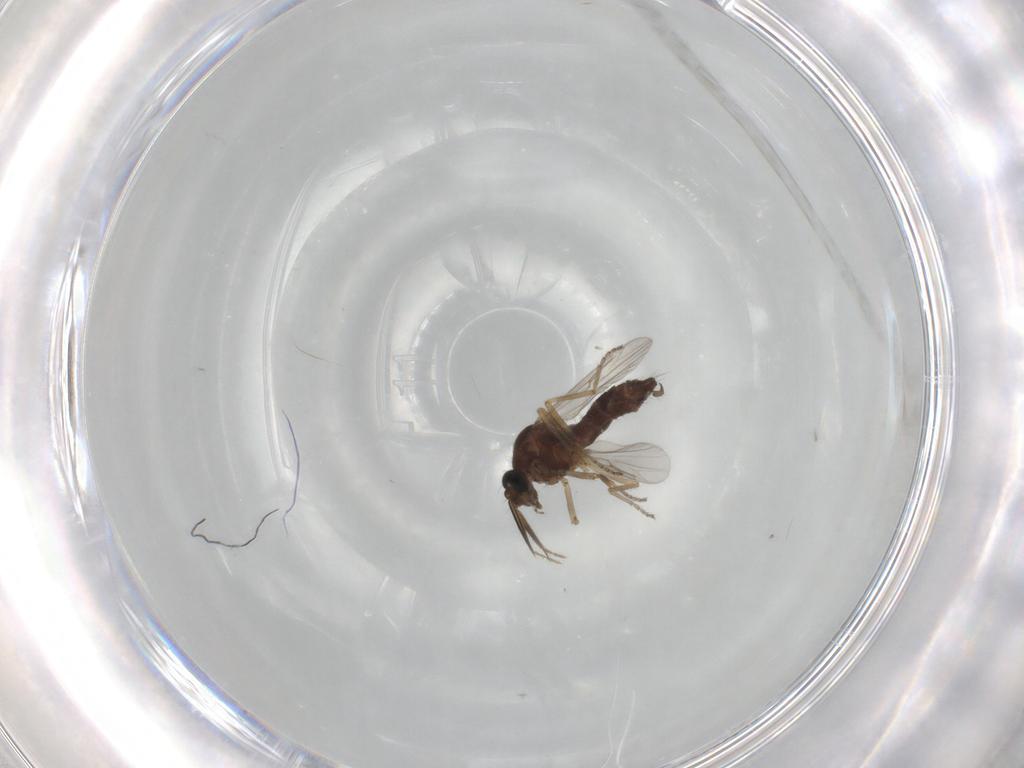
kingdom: Animalia
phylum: Arthropoda
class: Insecta
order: Diptera
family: Ceratopogonidae
